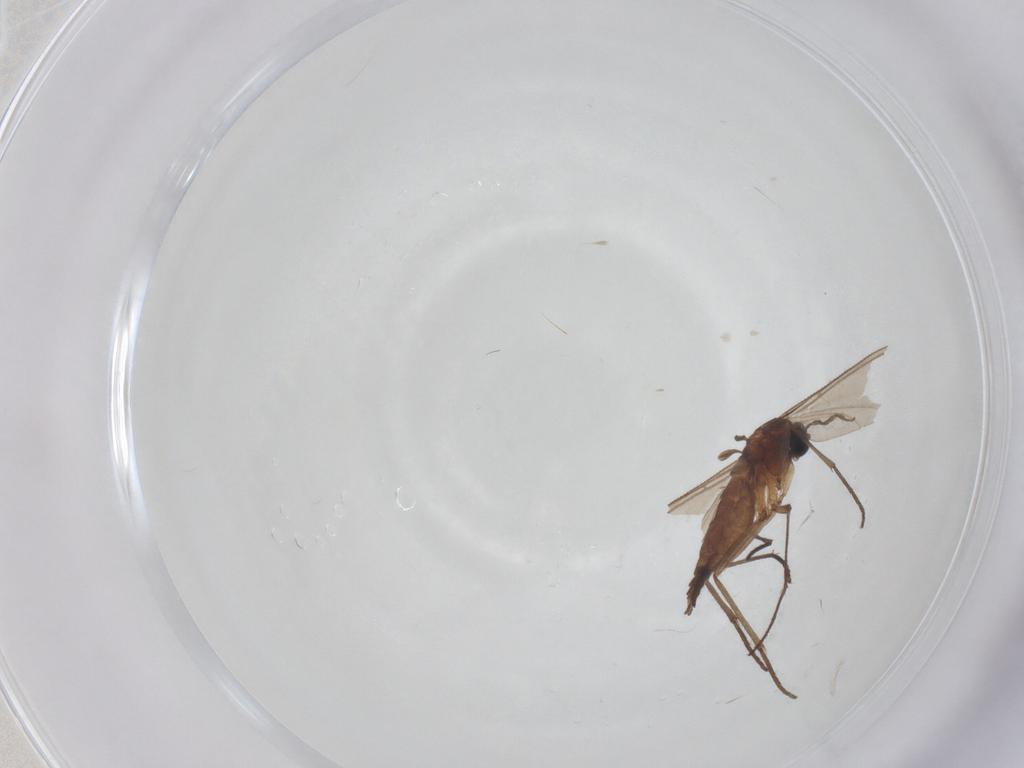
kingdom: Animalia
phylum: Arthropoda
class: Insecta
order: Diptera
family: Sciaridae
